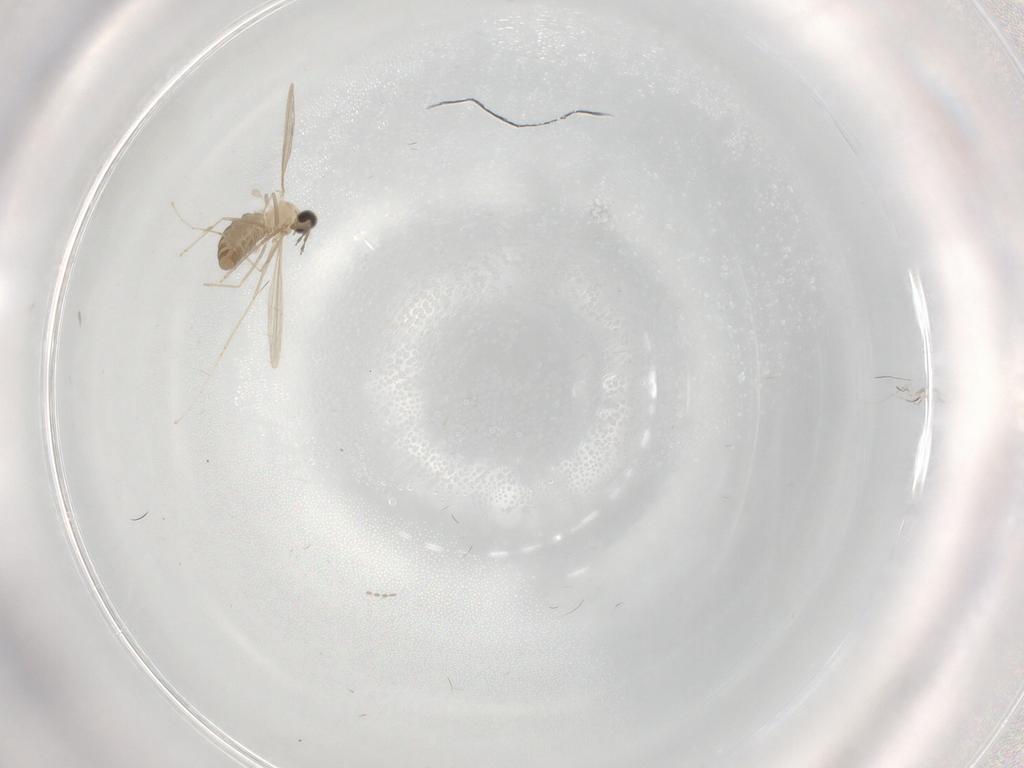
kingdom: Animalia
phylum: Arthropoda
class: Insecta
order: Diptera
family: Cecidomyiidae
